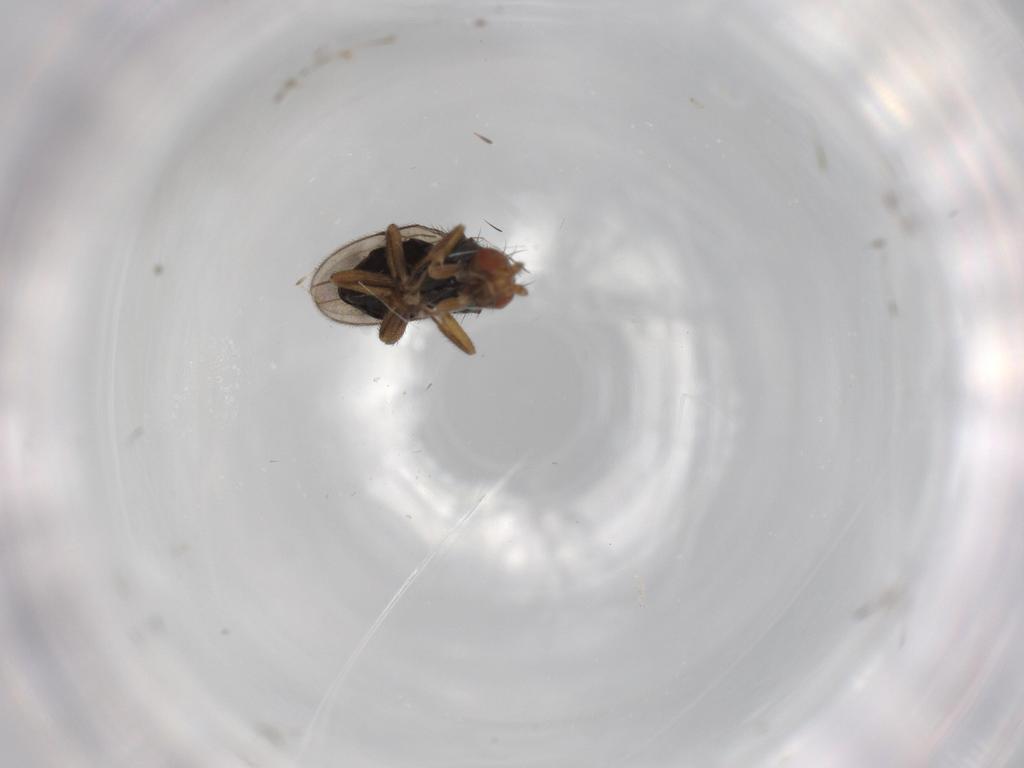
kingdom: Animalia
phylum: Arthropoda
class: Insecta
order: Diptera
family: Sphaeroceridae
